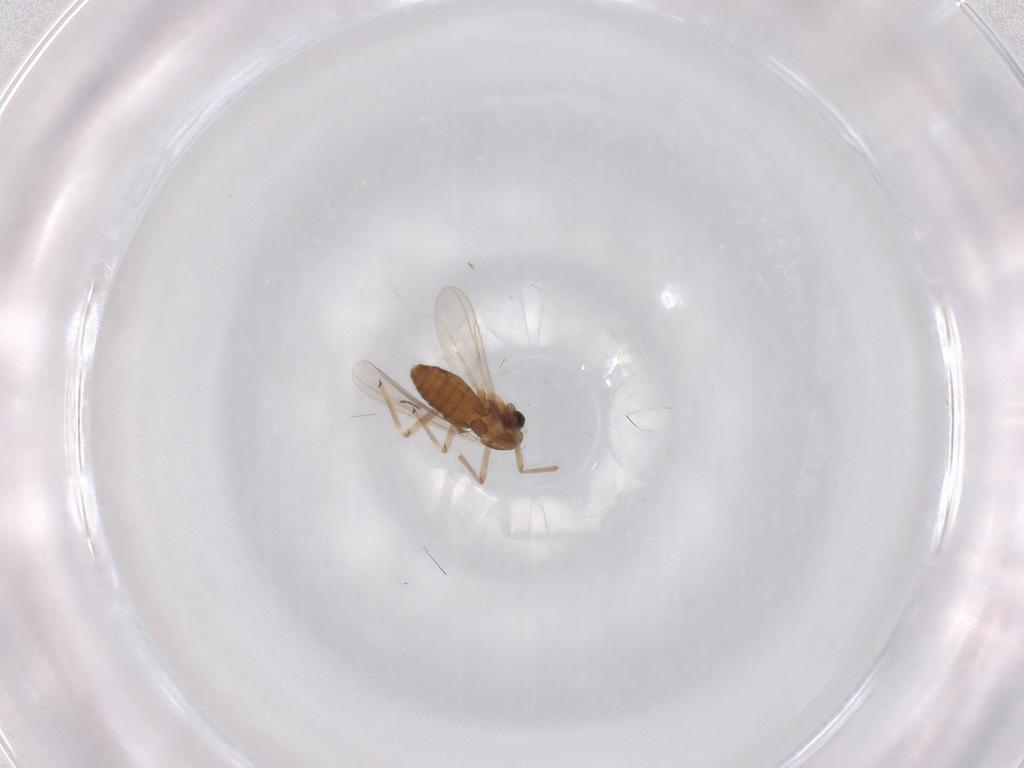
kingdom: Animalia
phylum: Arthropoda
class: Insecta
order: Diptera
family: Chironomidae
